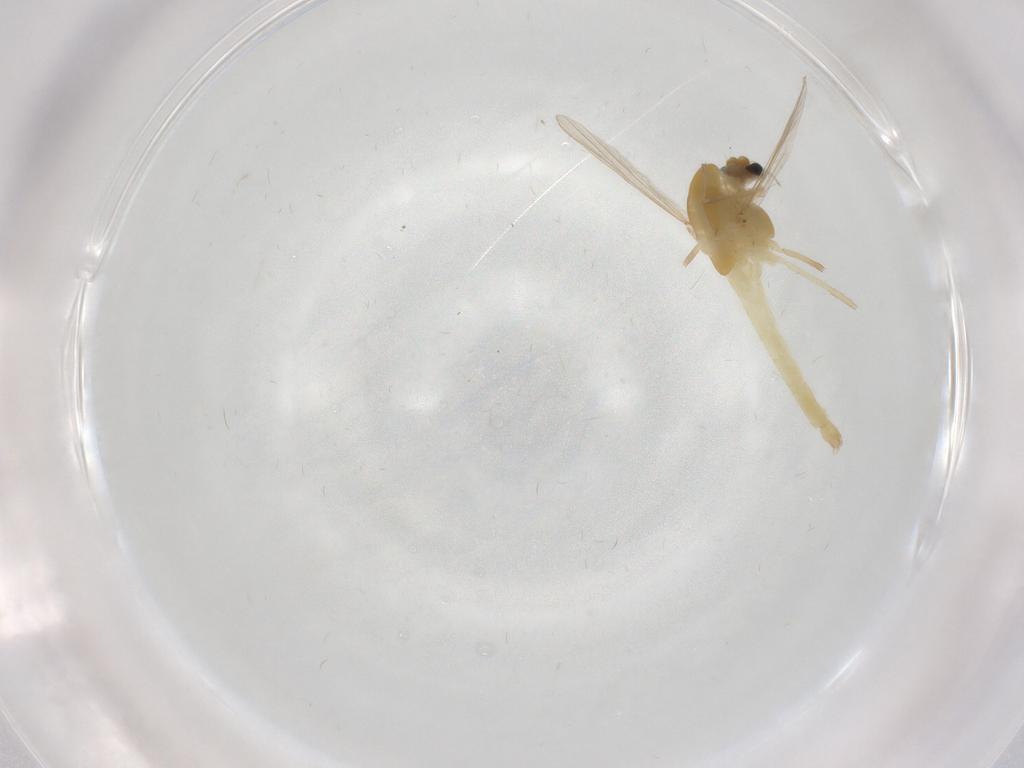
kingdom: Animalia
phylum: Arthropoda
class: Insecta
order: Diptera
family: Chironomidae
